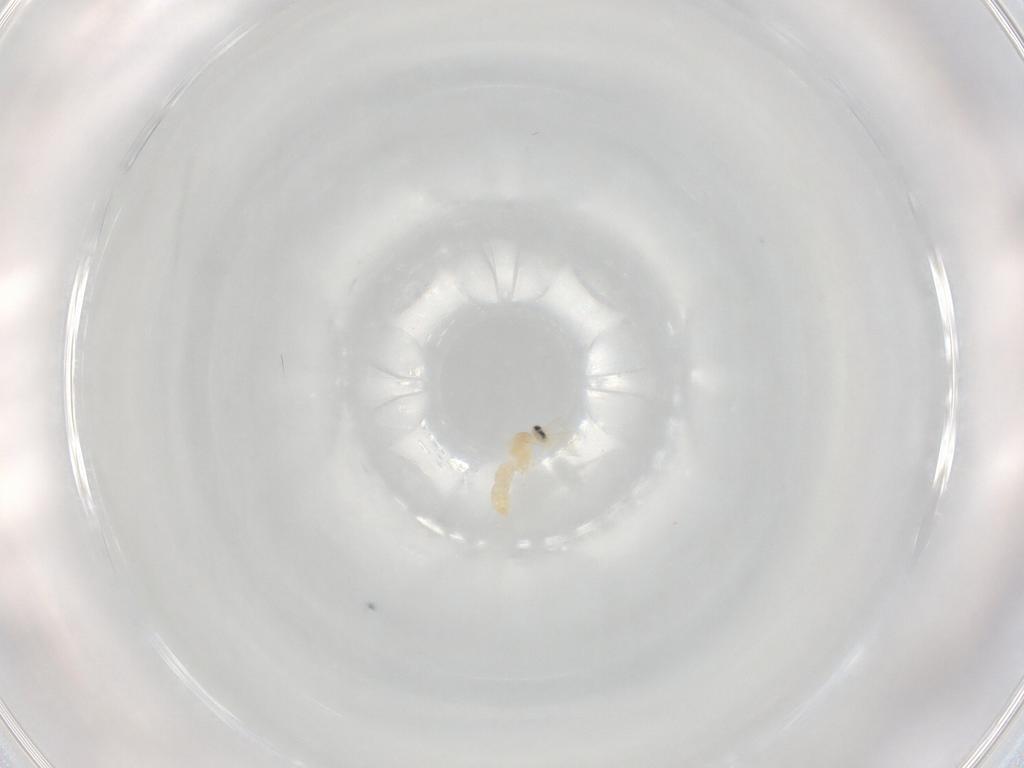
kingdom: Animalia
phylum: Arthropoda
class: Insecta
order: Diptera
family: Cecidomyiidae
